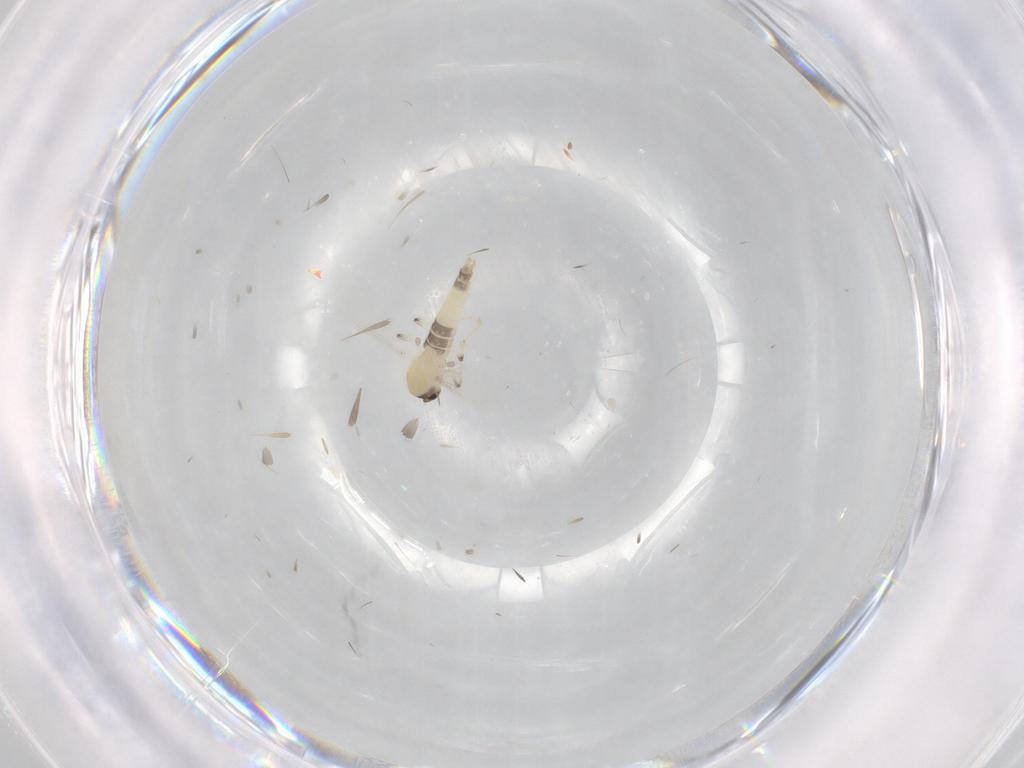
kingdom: Animalia
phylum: Arthropoda
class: Insecta
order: Diptera
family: Chironomidae
